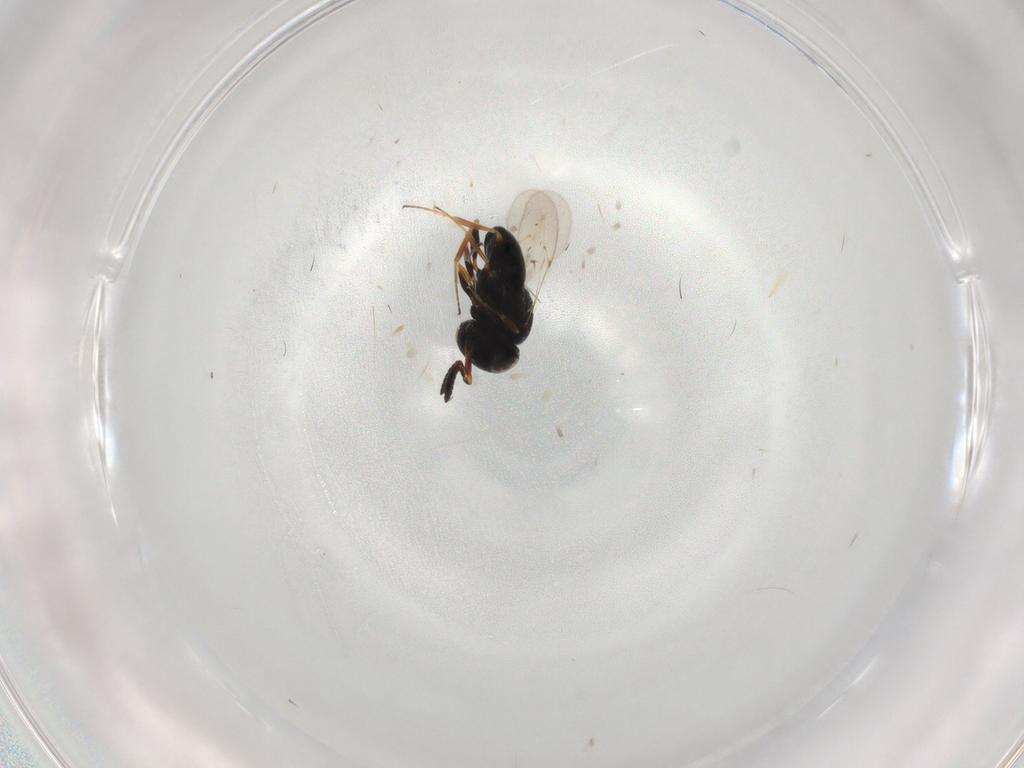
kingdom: Animalia
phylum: Arthropoda
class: Insecta
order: Coleoptera
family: Curculionidae
